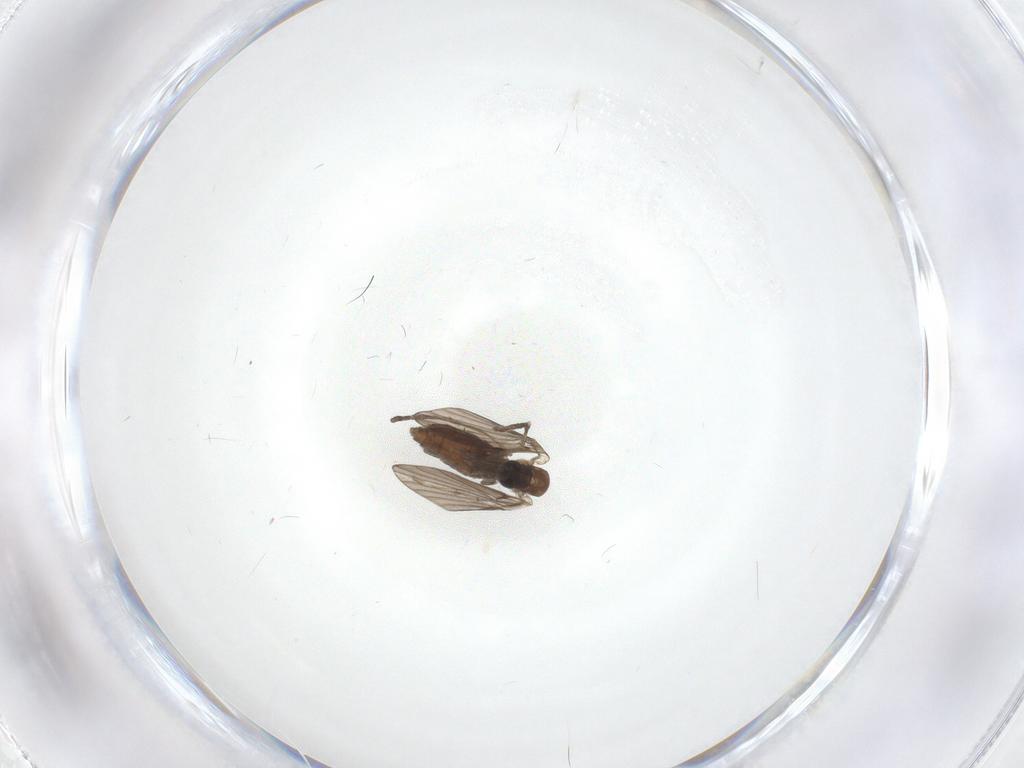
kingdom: Animalia
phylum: Arthropoda
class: Insecta
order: Diptera
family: Psychodidae
